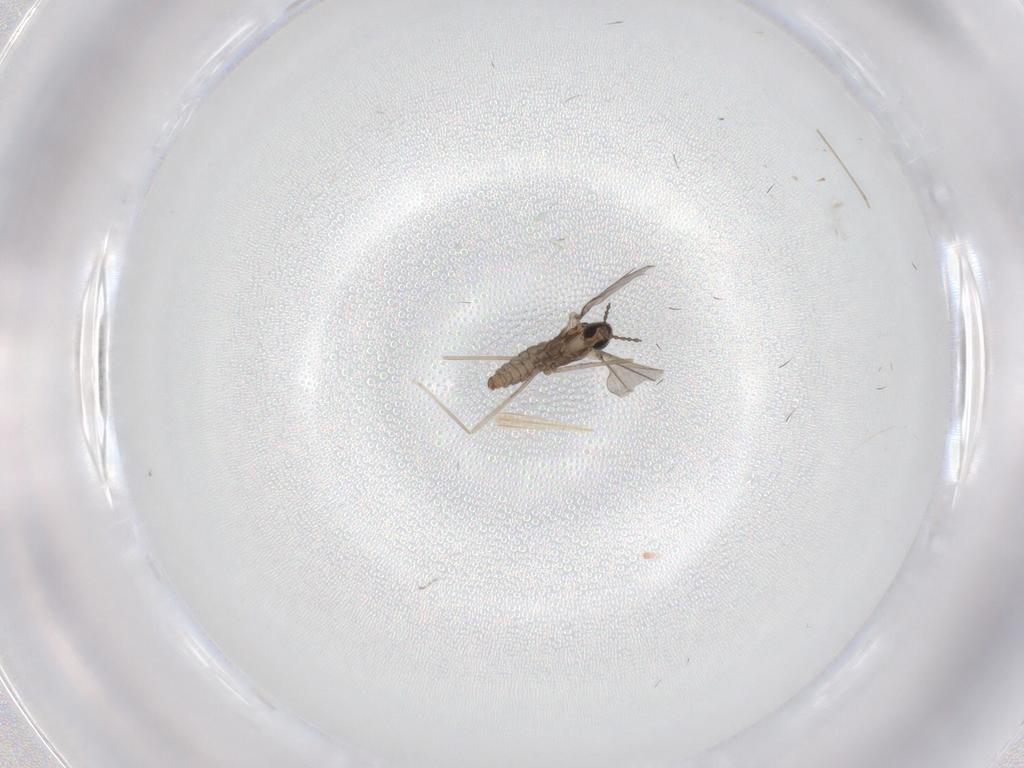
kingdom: Animalia
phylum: Arthropoda
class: Insecta
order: Diptera
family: Cecidomyiidae
